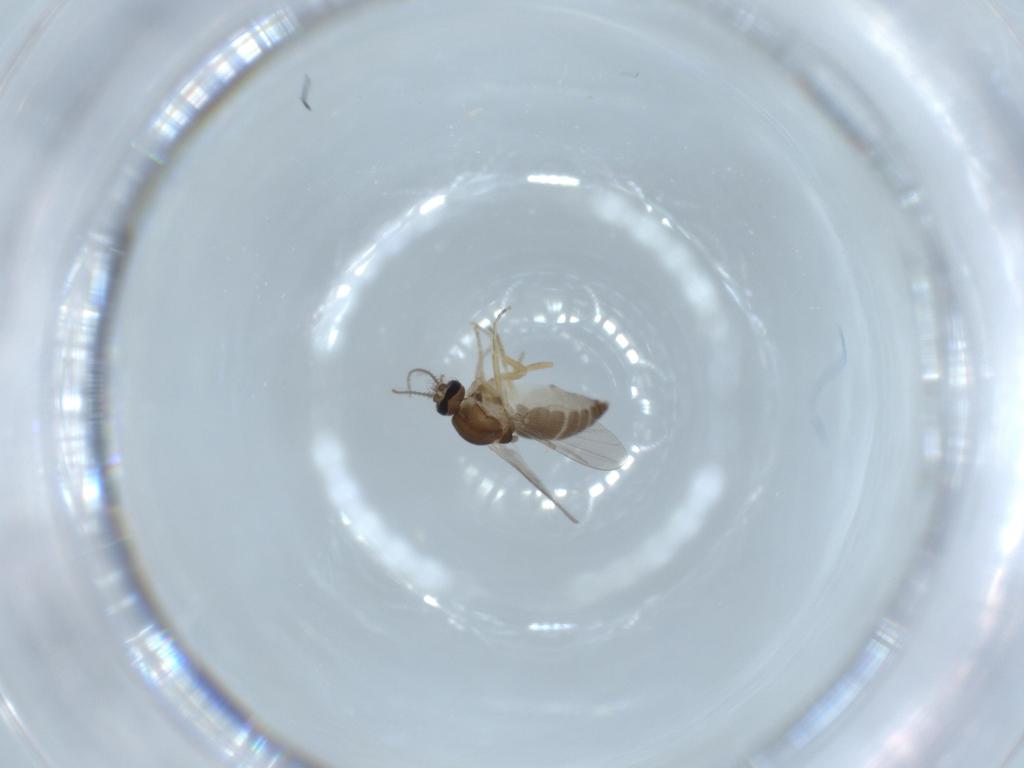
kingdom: Animalia
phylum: Arthropoda
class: Insecta
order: Diptera
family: Ceratopogonidae
